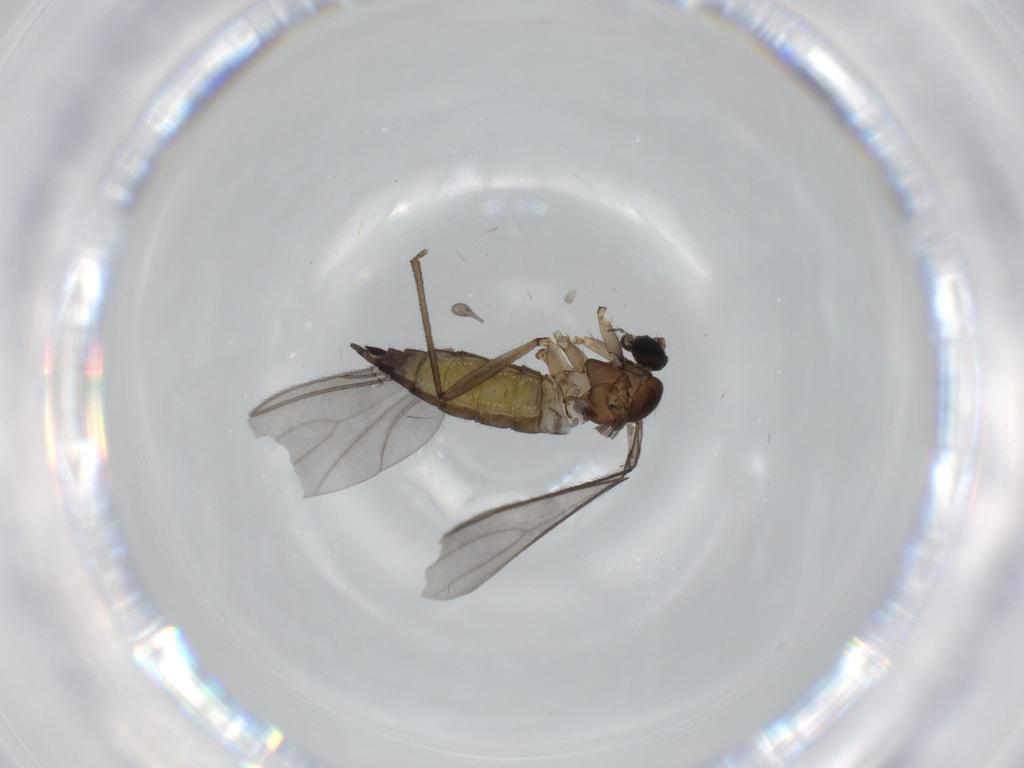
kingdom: Animalia
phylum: Arthropoda
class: Insecta
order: Diptera
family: Sciaridae
